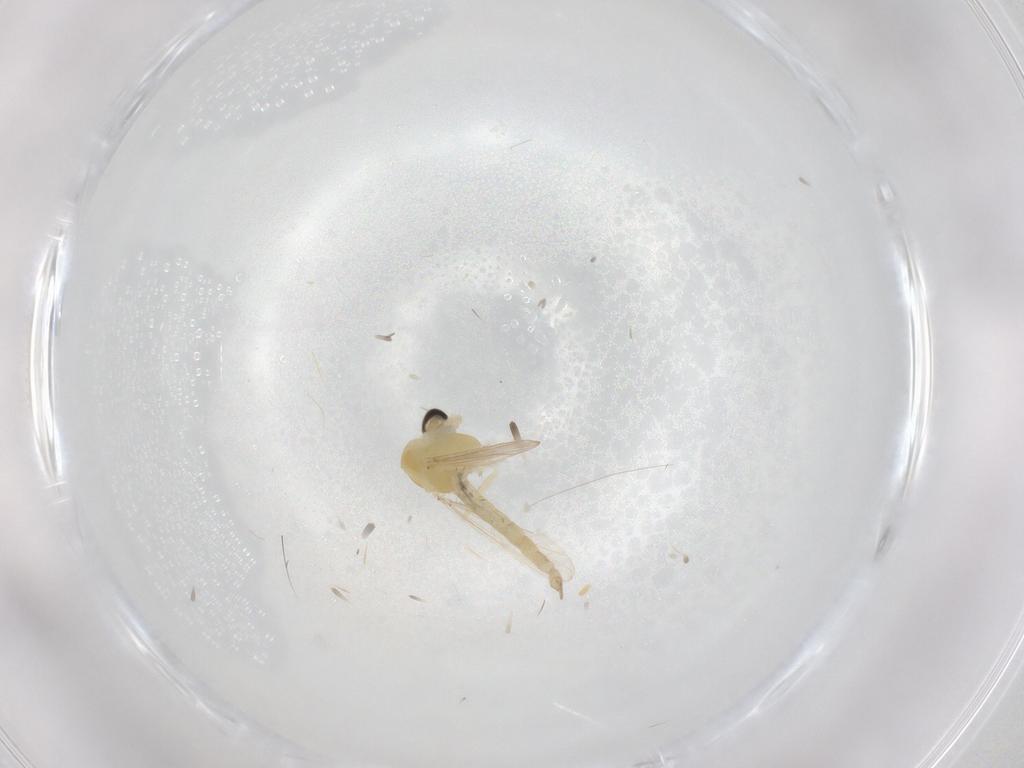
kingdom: Animalia
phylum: Arthropoda
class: Insecta
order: Diptera
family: Chironomidae
